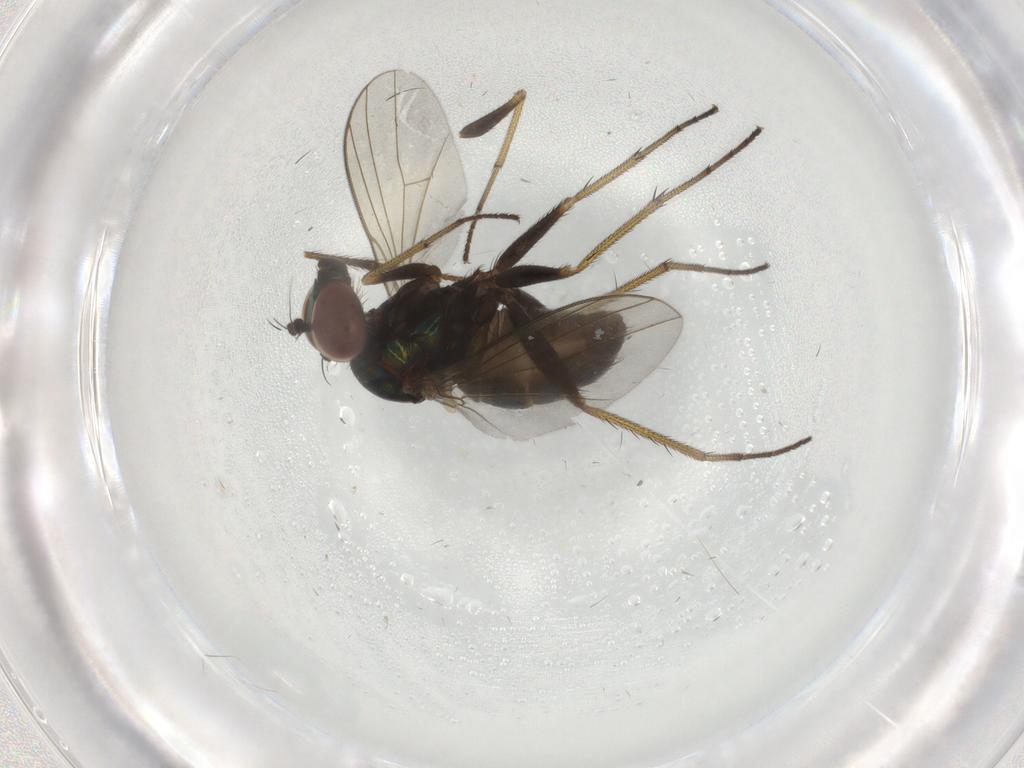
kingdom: Animalia
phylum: Arthropoda
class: Insecta
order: Diptera
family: Dolichopodidae
